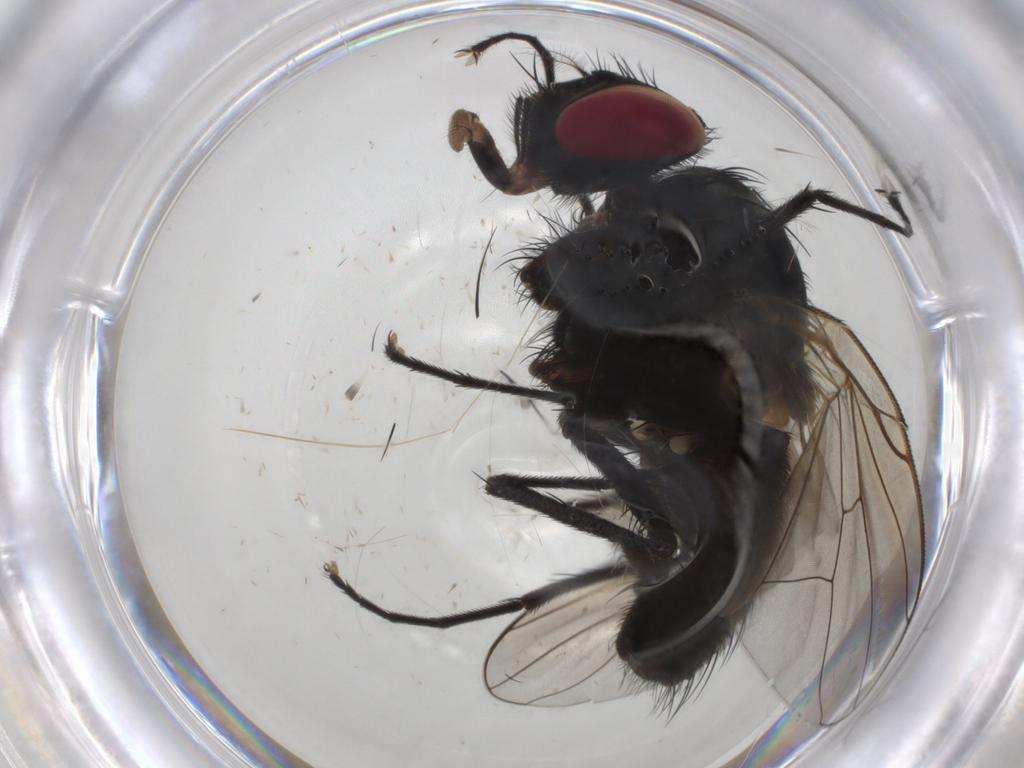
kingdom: Animalia
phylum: Arthropoda
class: Insecta
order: Diptera
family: Muscidae
